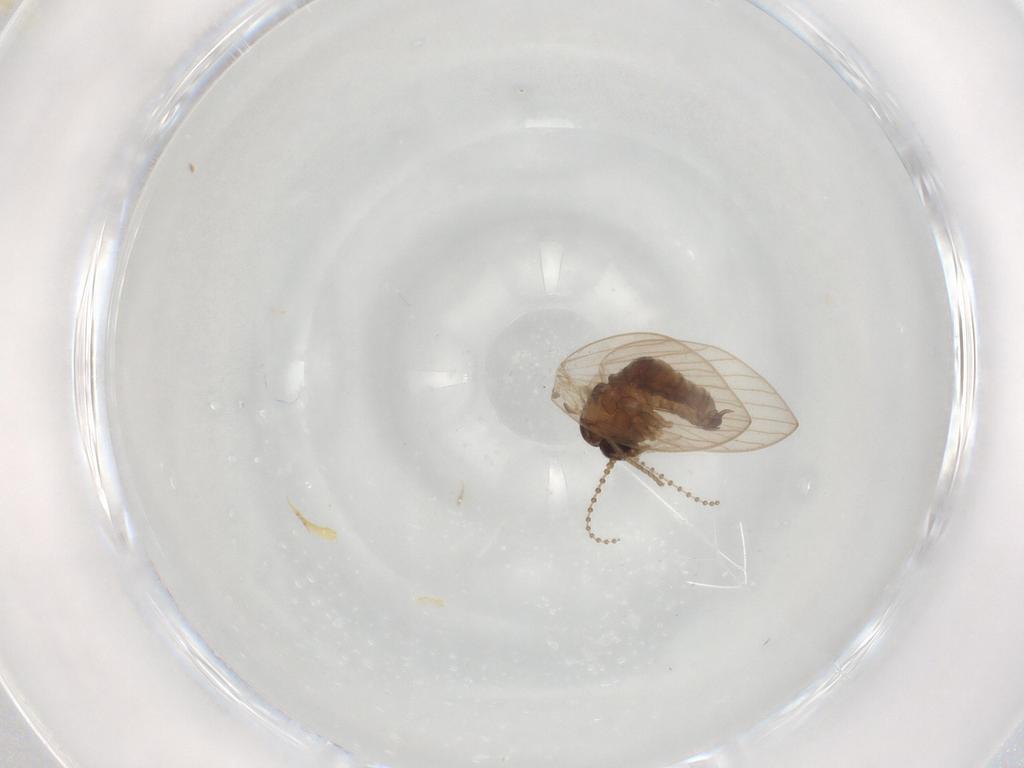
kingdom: Animalia
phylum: Arthropoda
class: Insecta
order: Diptera
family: Psychodidae
